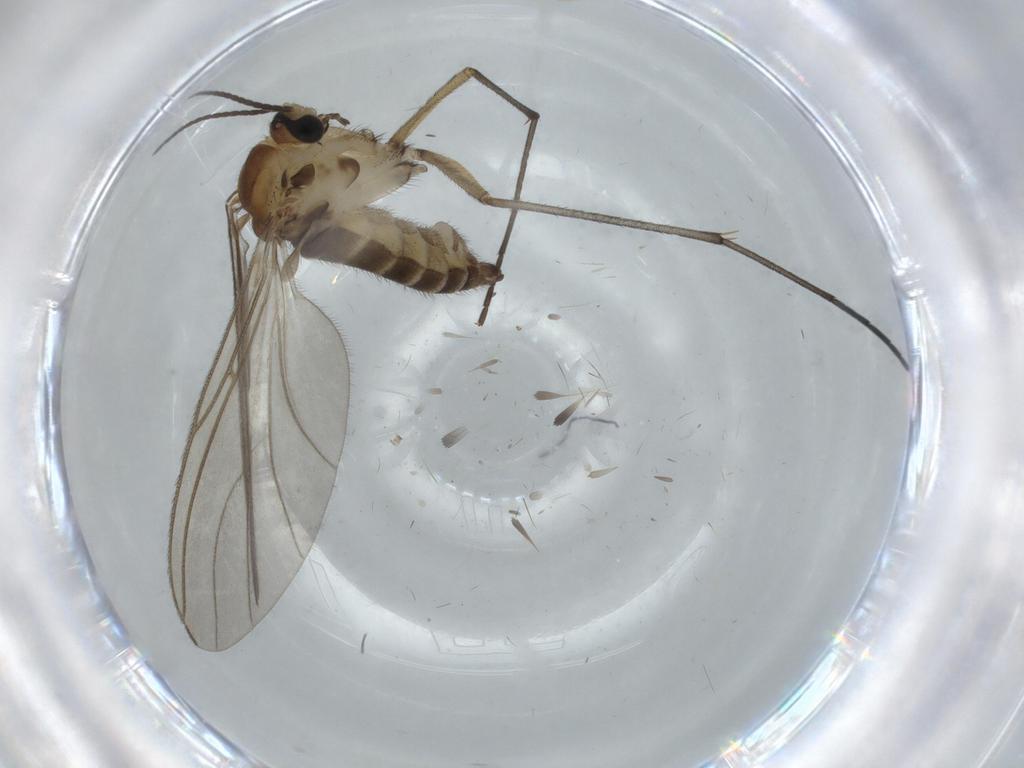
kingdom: Animalia
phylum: Arthropoda
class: Insecta
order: Diptera
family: Sciaridae
